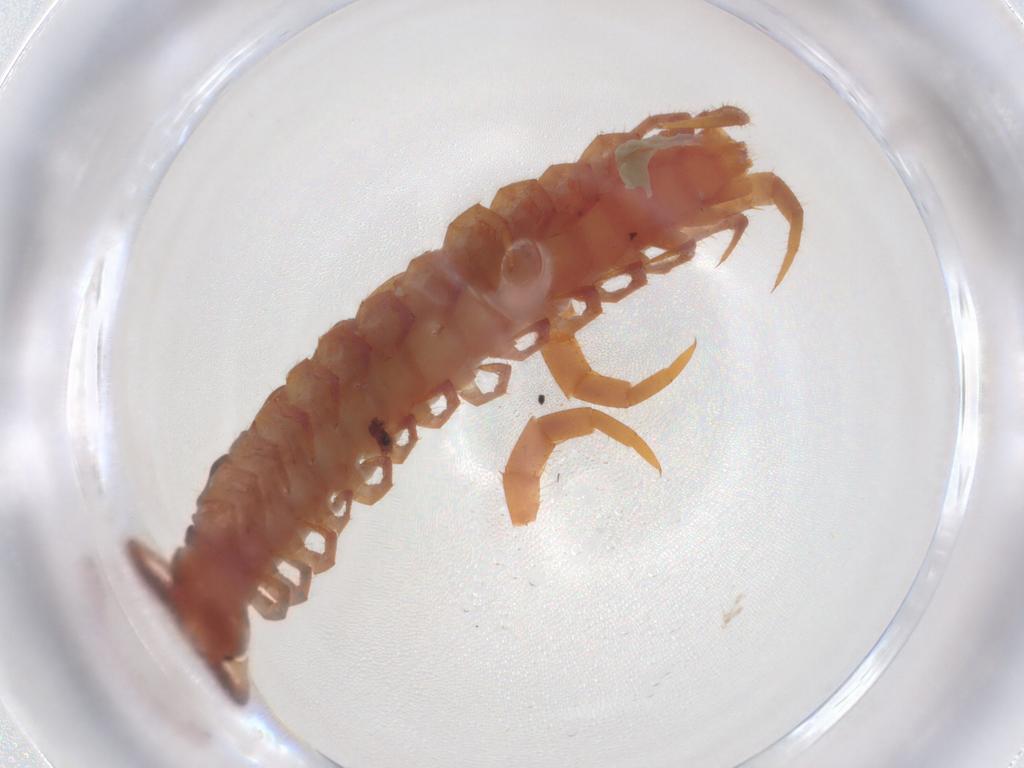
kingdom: Animalia
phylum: Arthropoda
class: Chilopoda
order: Lithobiomorpha
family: Lithobiidae
